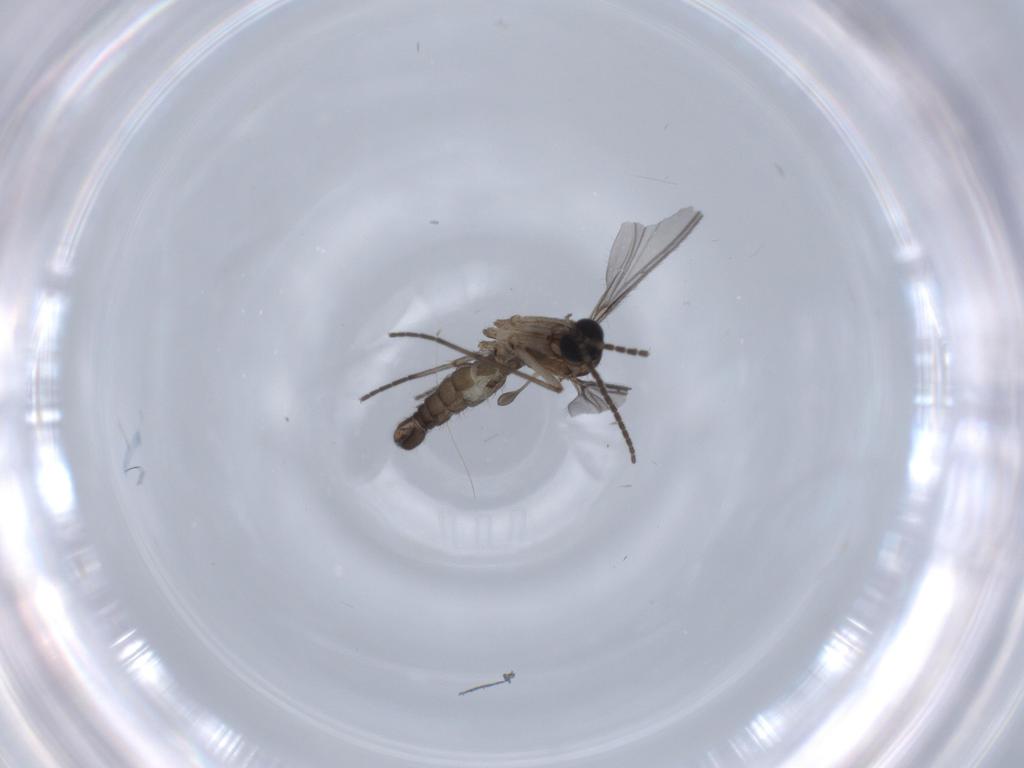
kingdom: Animalia
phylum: Arthropoda
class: Insecta
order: Diptera
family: Sciaridae
